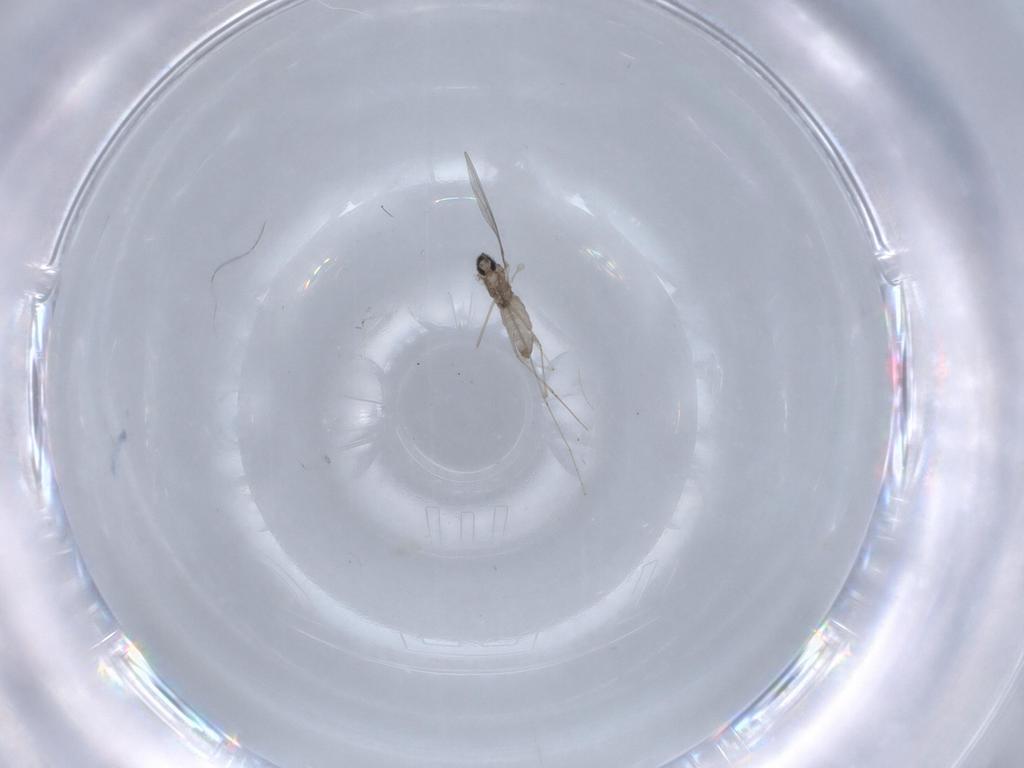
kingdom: Animalia
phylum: Arthropoda
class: Insecta
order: Diptera
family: Cecidomyiidae
